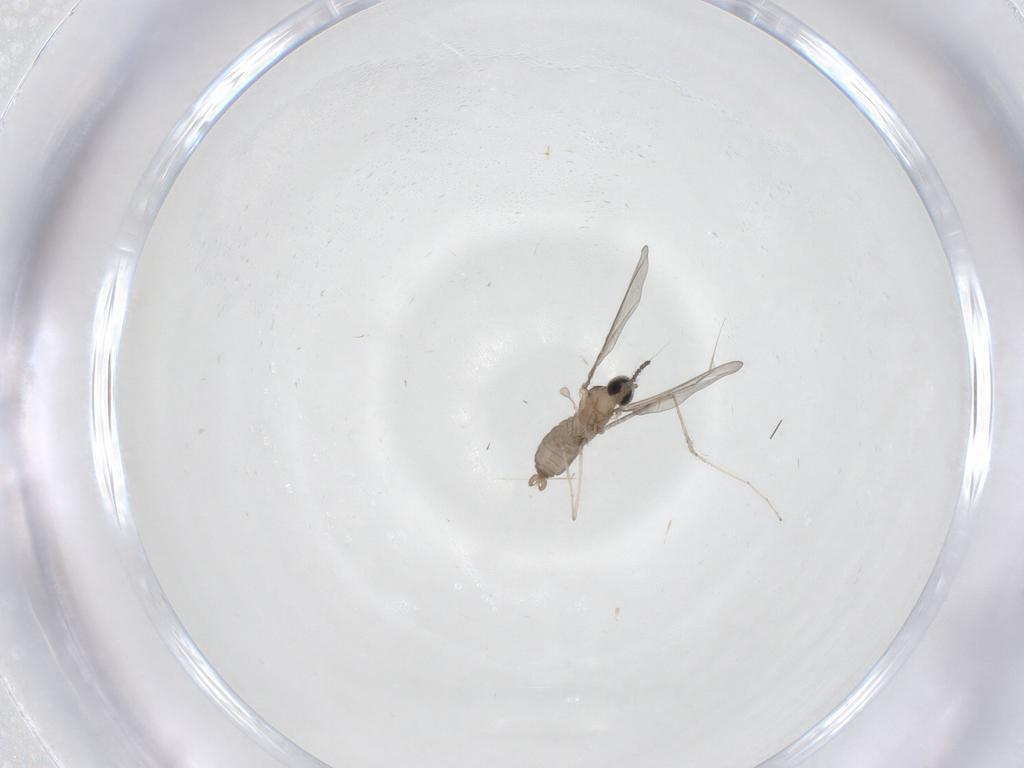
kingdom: Animalia
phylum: Arthropoda
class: Insecta
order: Diptera
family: Cecidomyiidae
